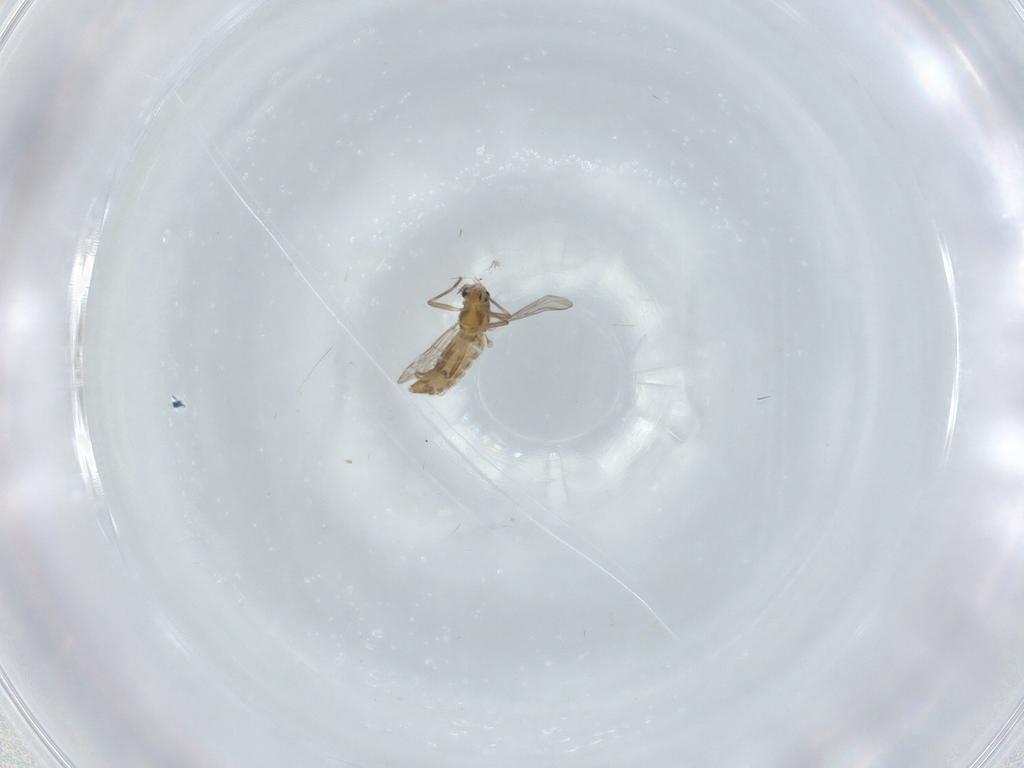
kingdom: Animalia
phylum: Arthropoda
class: Insecta
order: Diptera
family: Chironomidae
